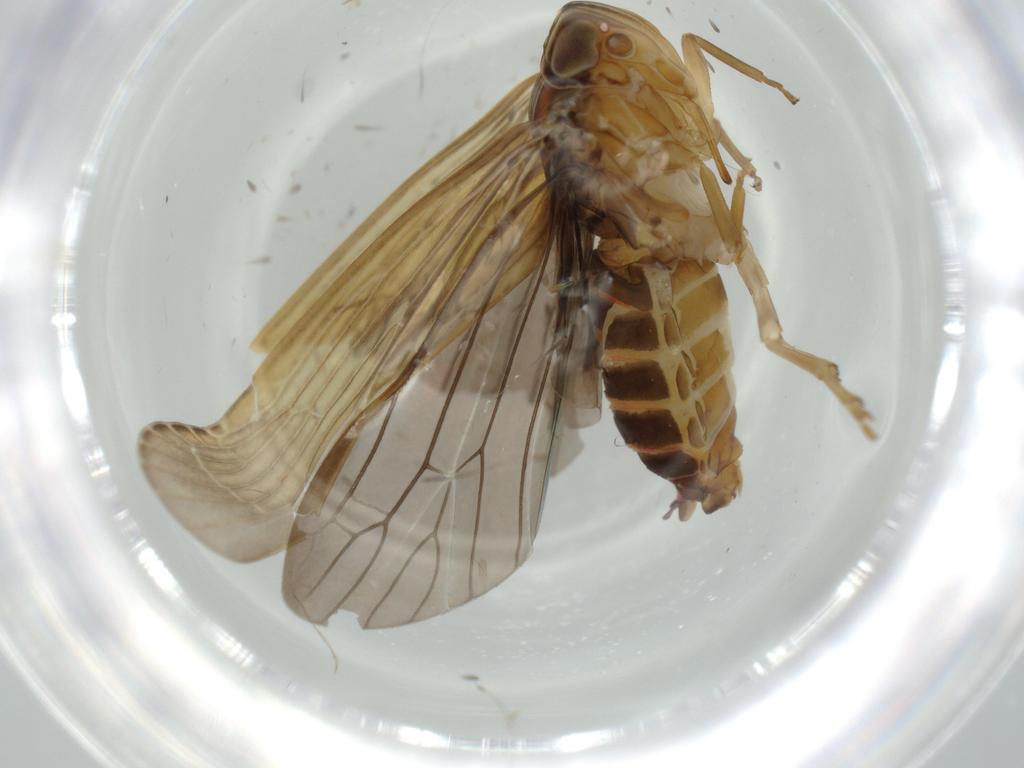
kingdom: Animalia
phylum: Arthropoda
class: Insecta
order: Hemiptera
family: Achilidae
